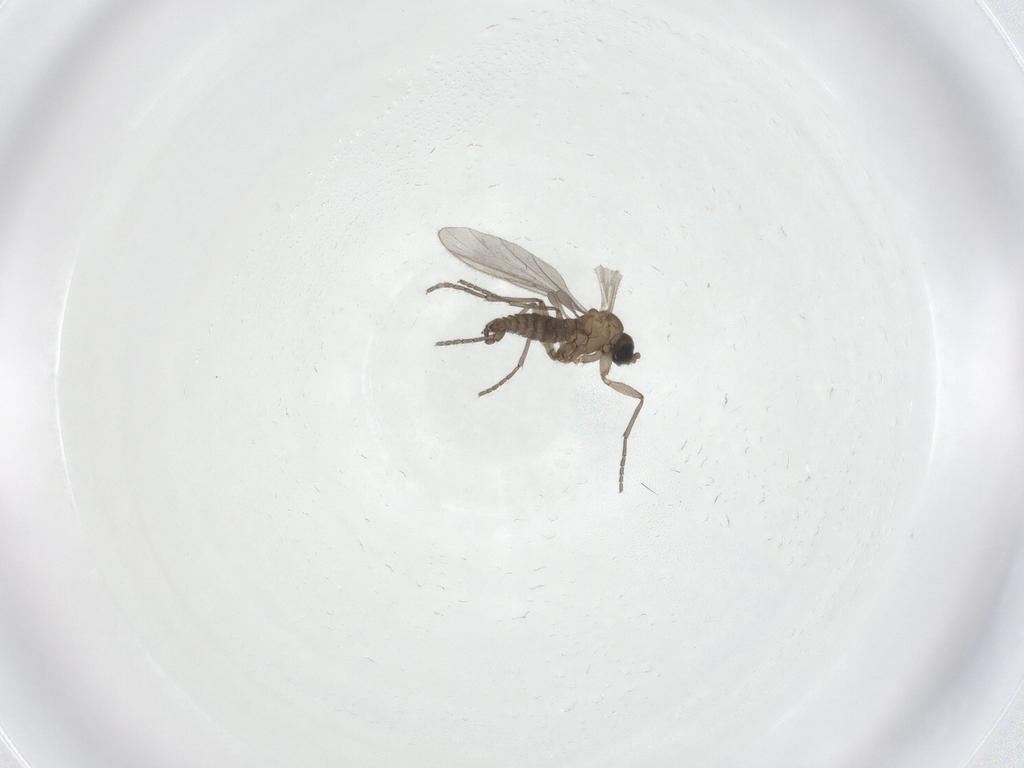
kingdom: Animalia
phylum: Arthropoda
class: Insecta
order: Diptera
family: Sciaridae
